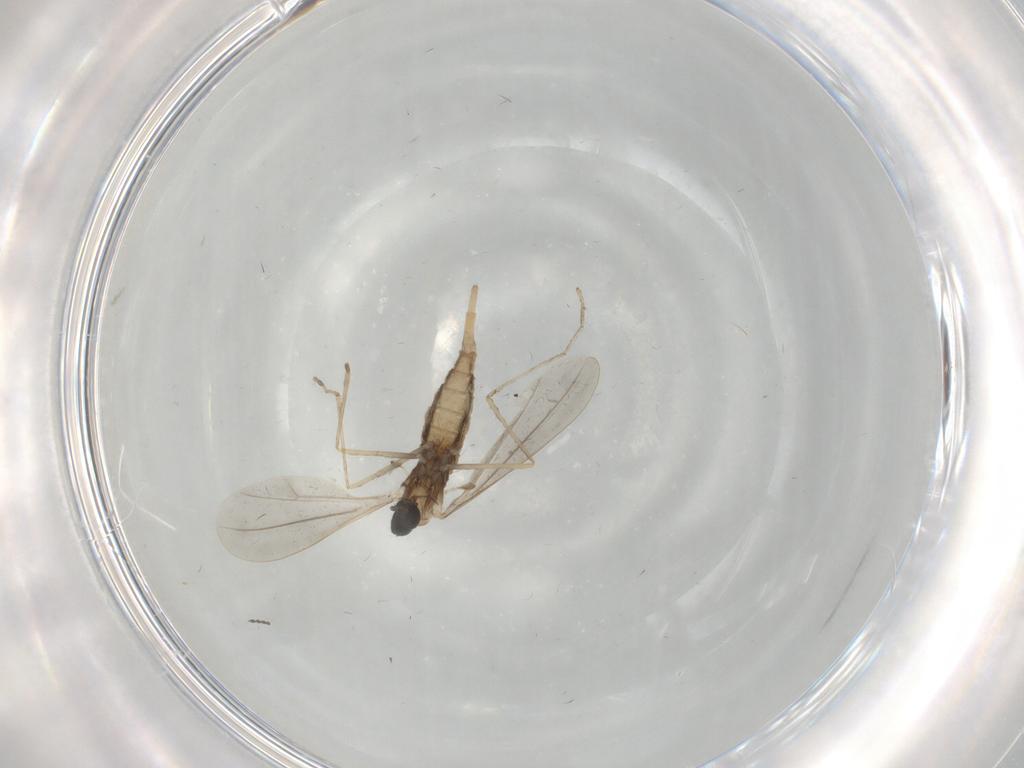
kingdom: Animalia
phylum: Arthropoda
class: Insecta
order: Diptera
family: Cecidomyiidae
